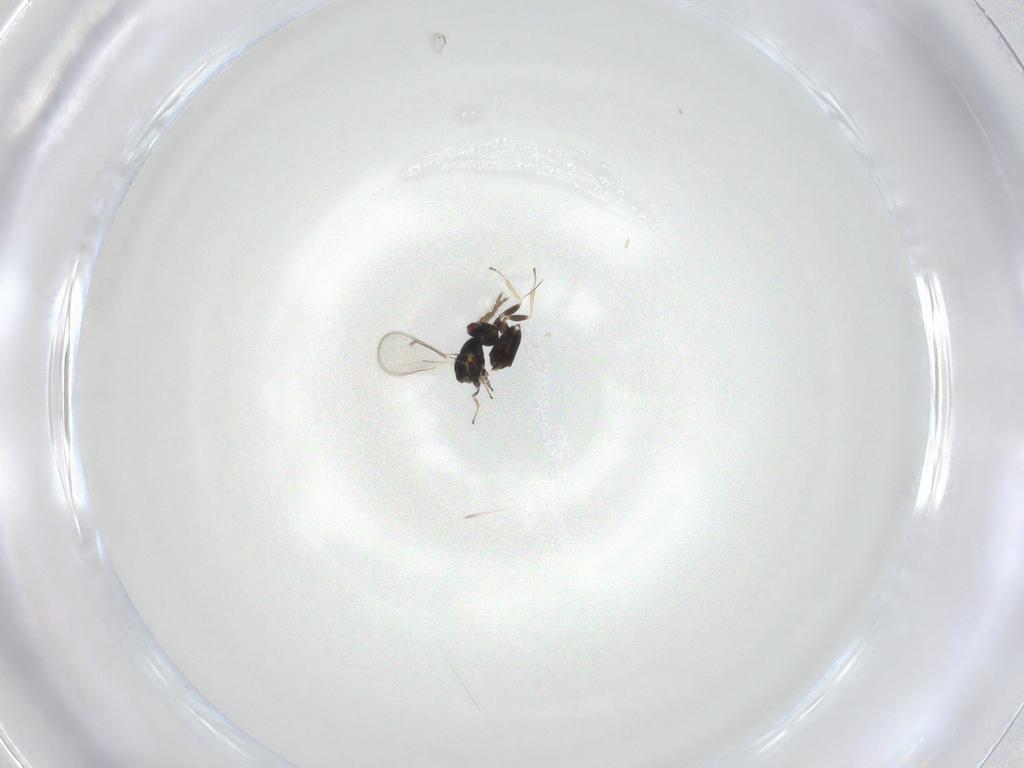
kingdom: Animalia
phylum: Arthropoda
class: Insecta
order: Hymenoptera
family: Eulophidae
